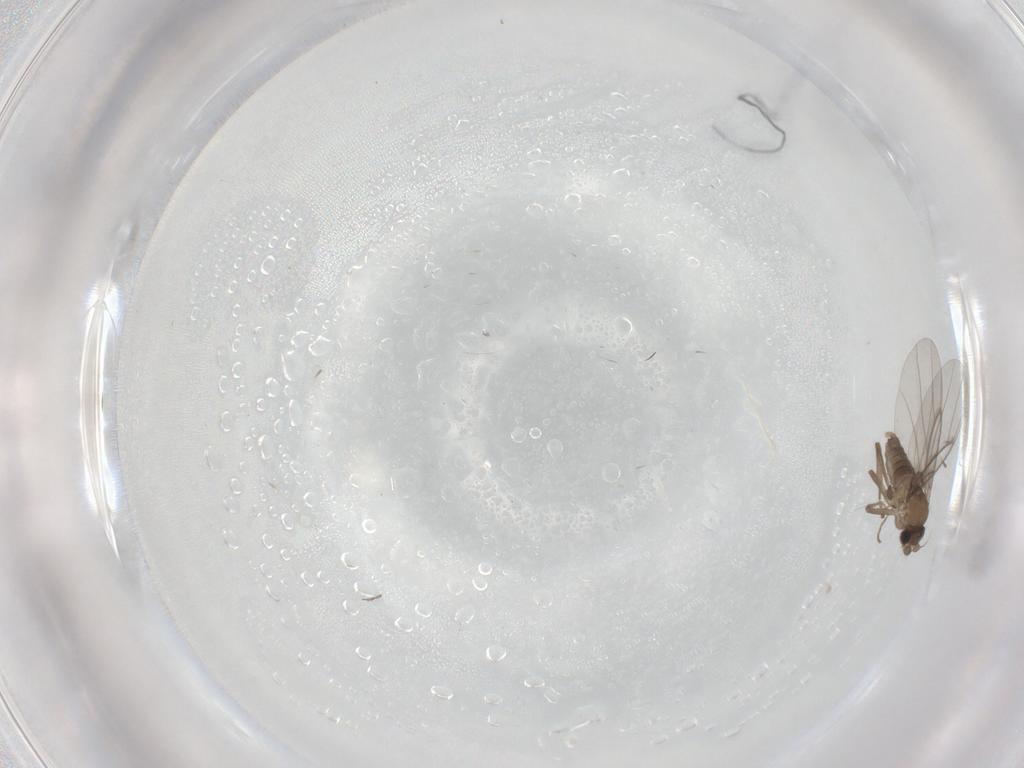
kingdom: Animalia
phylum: Arthropoda
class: Insecta
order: Diptera
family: Cecidomyiidae
